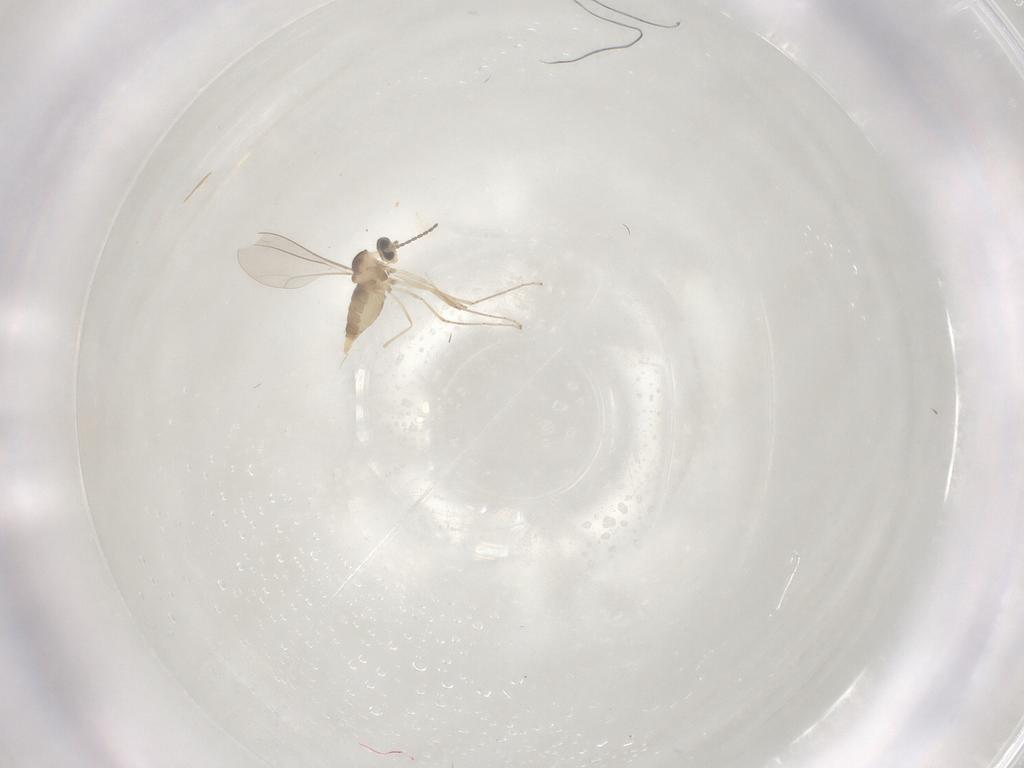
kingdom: Animalia
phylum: Arthropoda
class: Insecta
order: Diptera
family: Cecidomyiidae
